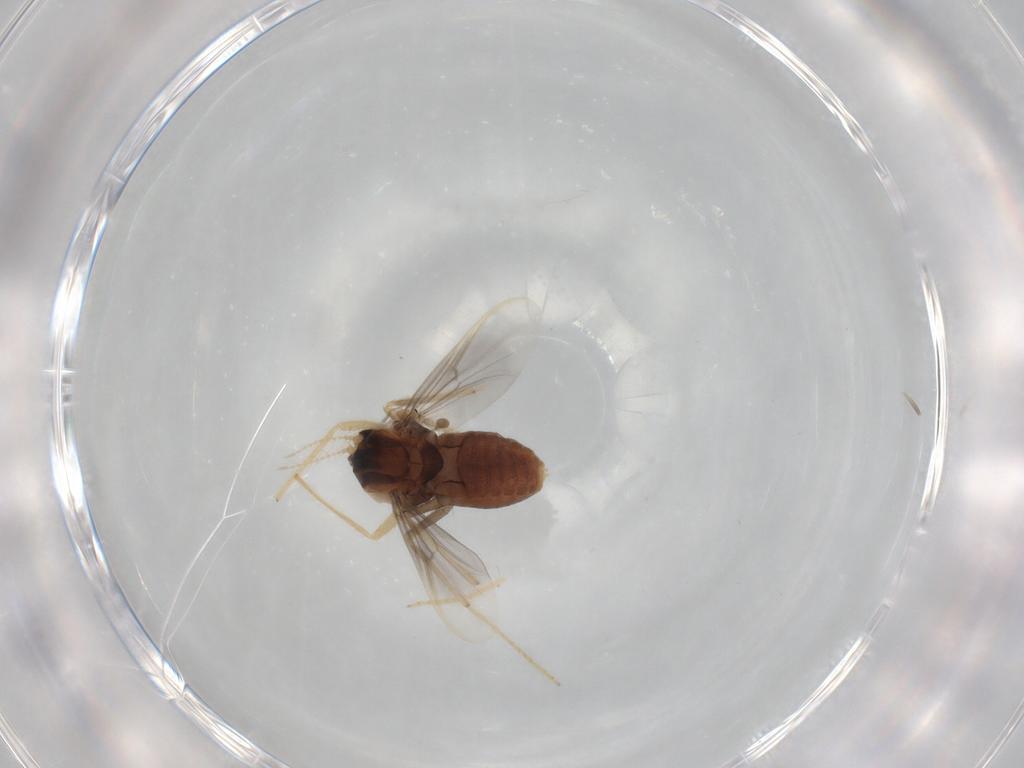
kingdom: Animalia
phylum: Arthropoda
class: Insecta
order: Diptera
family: Chironomidae
